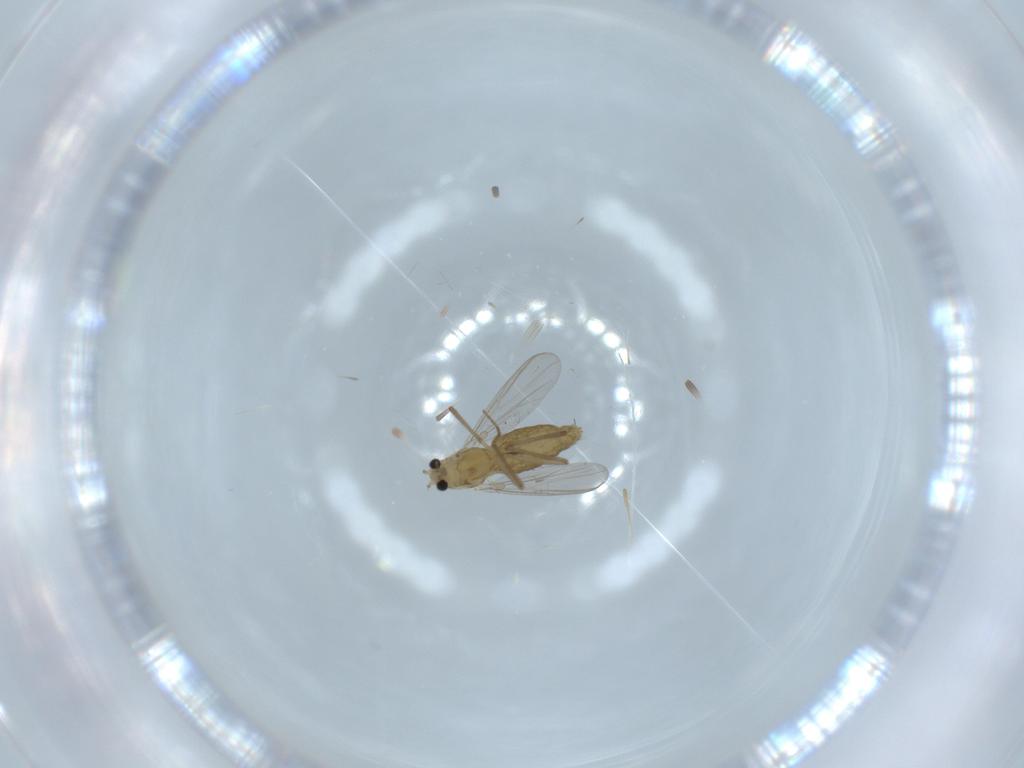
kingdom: Animalia
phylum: Arthropoda
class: Insecta
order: Diptera
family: Chironomidae
